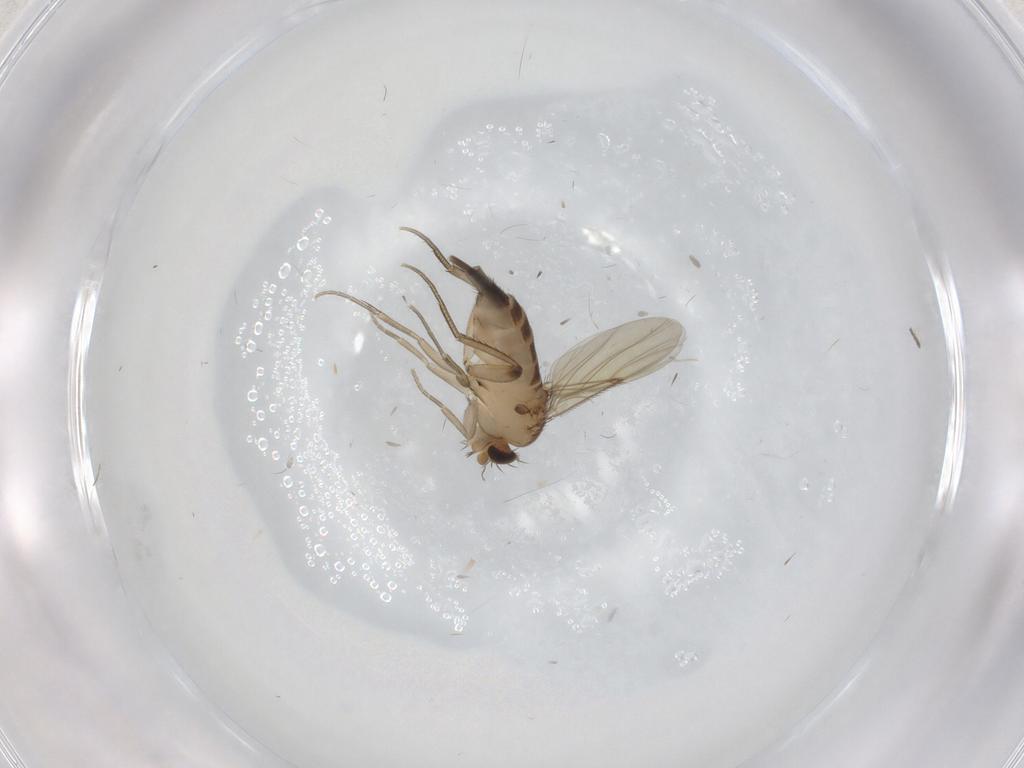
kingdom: Animalia
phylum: Arthropoda
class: Insecta
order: Diptera
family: Chironomidae
